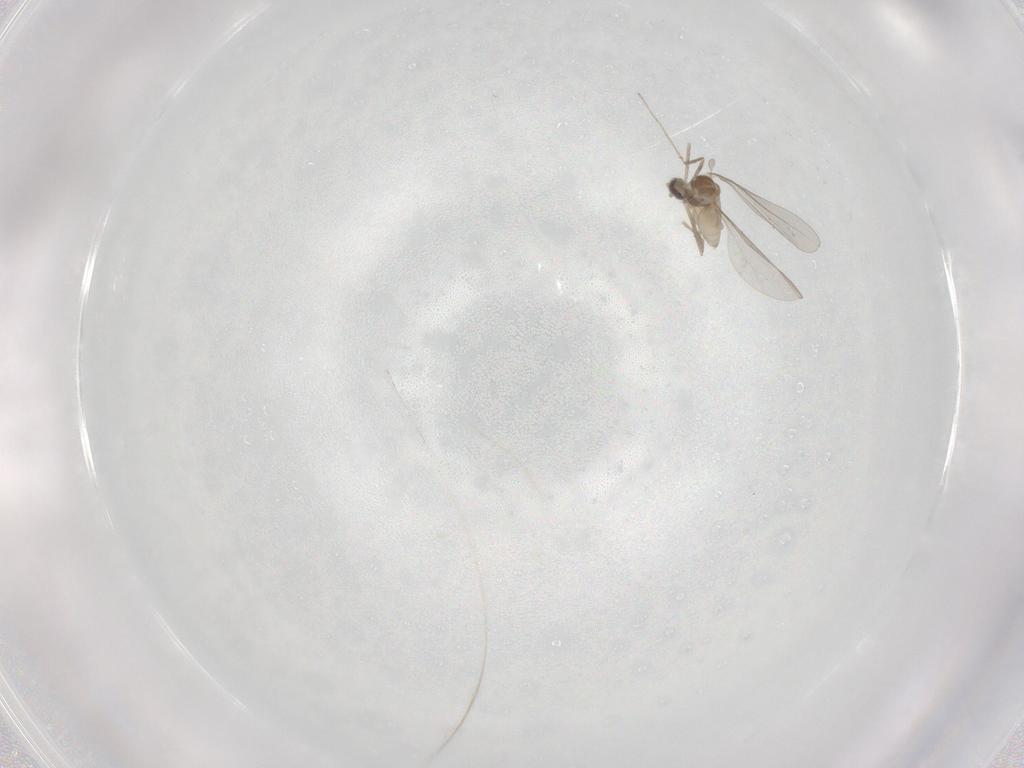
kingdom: Animalia
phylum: Arthropoda
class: Insecta
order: Diptera
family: Cecidomyiidae
